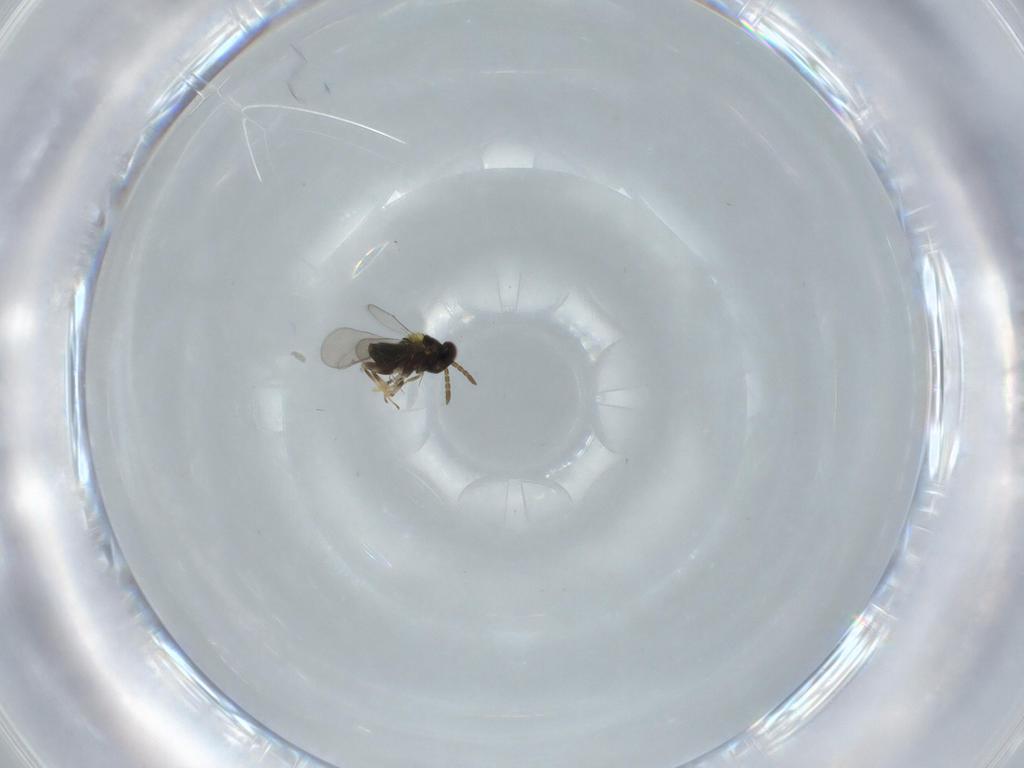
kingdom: Animalia
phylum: Arthropoda
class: Insecta
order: Hymenoptera
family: Aphelinidae
